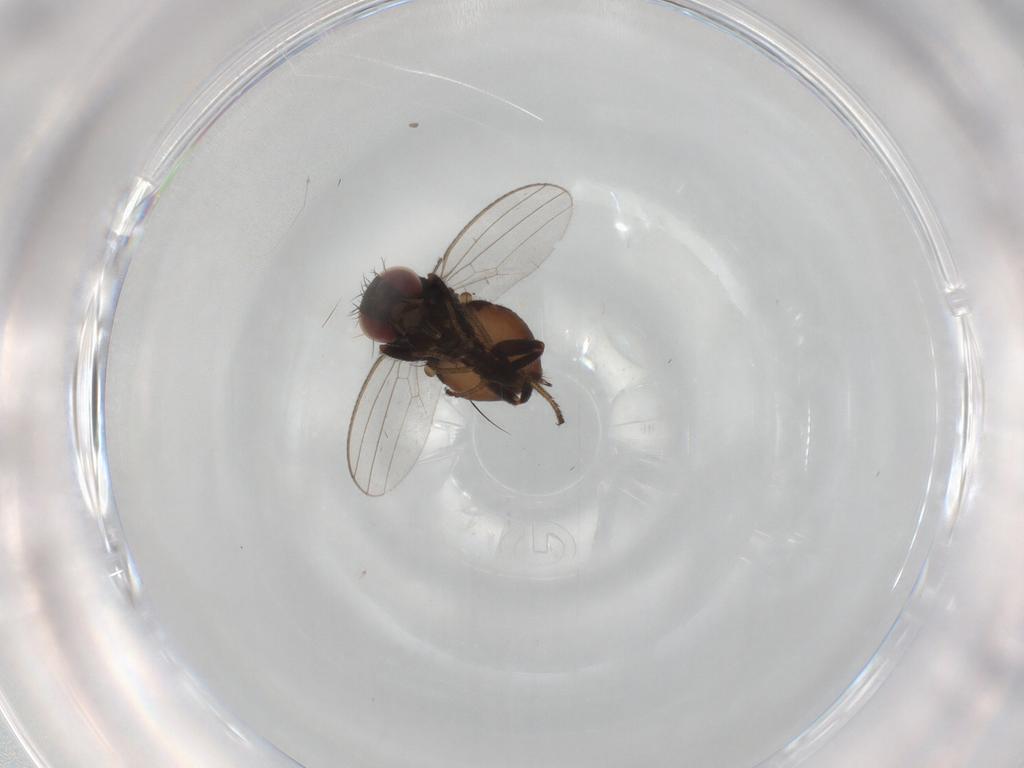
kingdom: Animalia
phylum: Arthropoda
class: Insecta
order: Diptera
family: Milichiidae
